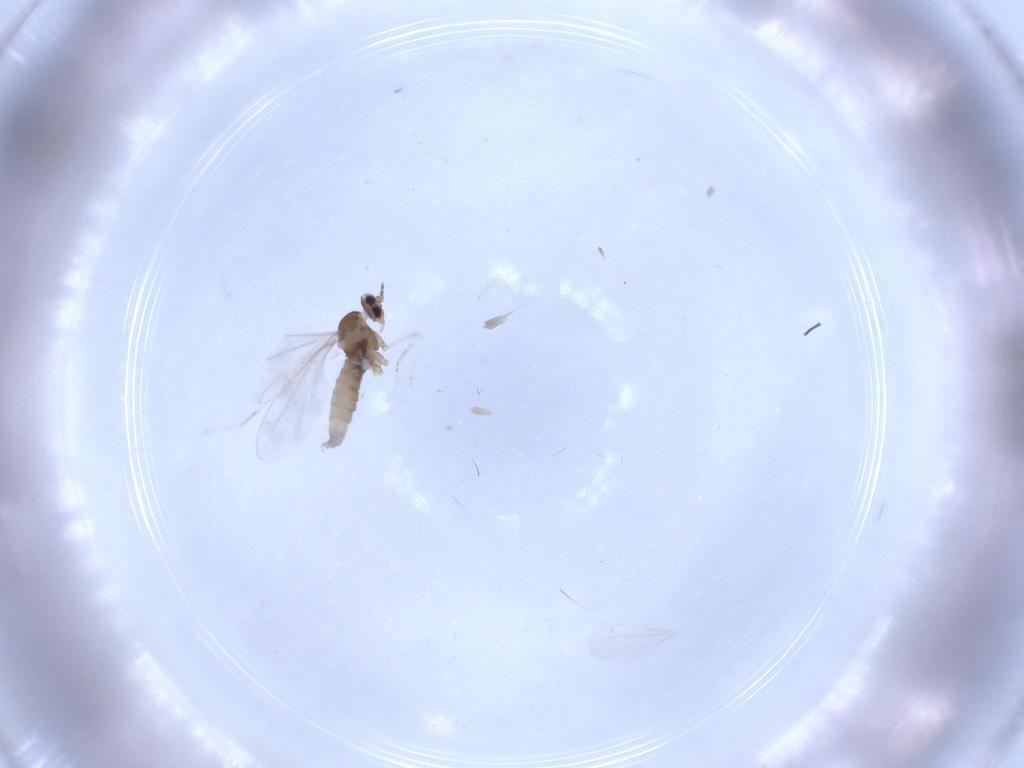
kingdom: Animalia
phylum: Arthropoda
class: Insecta
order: Diptera
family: Cecidomyiidae
